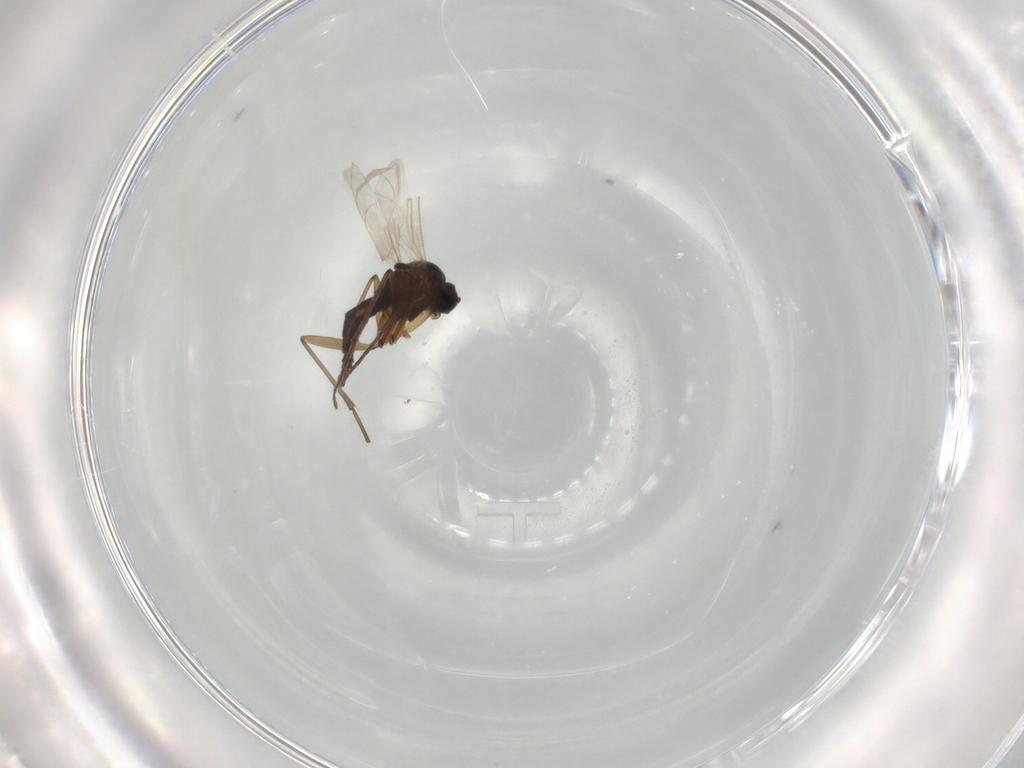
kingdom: Animalia
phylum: Arthropoda
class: Insecta
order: Diptera
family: Sciaridae
